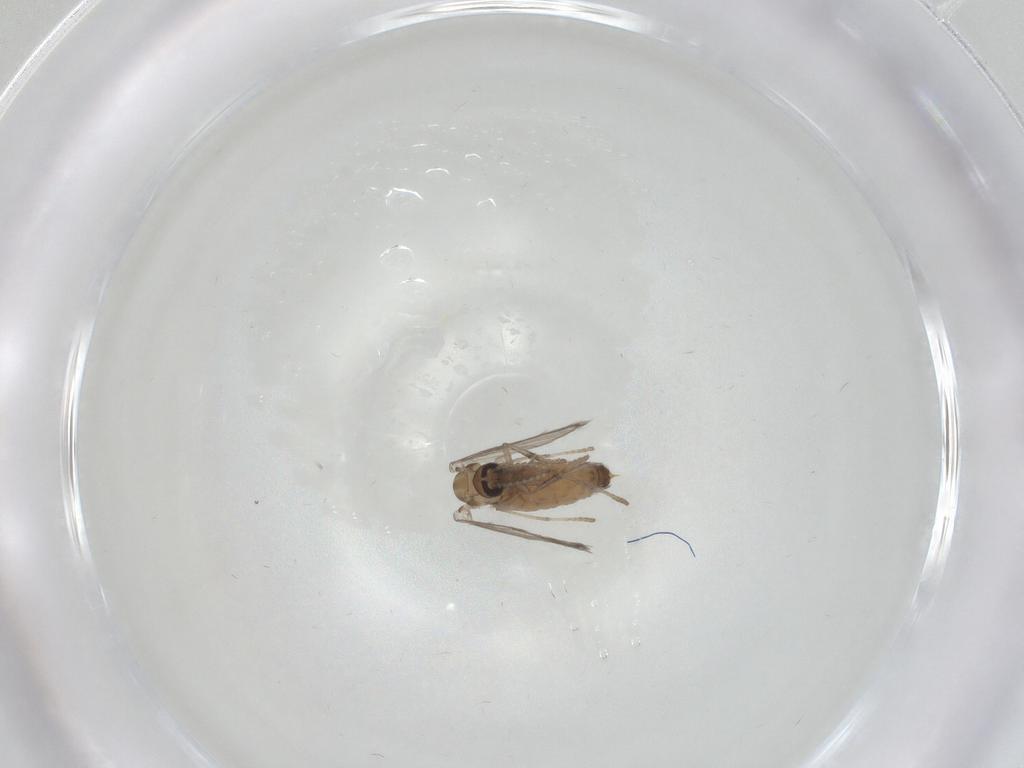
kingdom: Animalia
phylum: Arthropoda
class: Insecta
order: Diptera
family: Psychodidae
